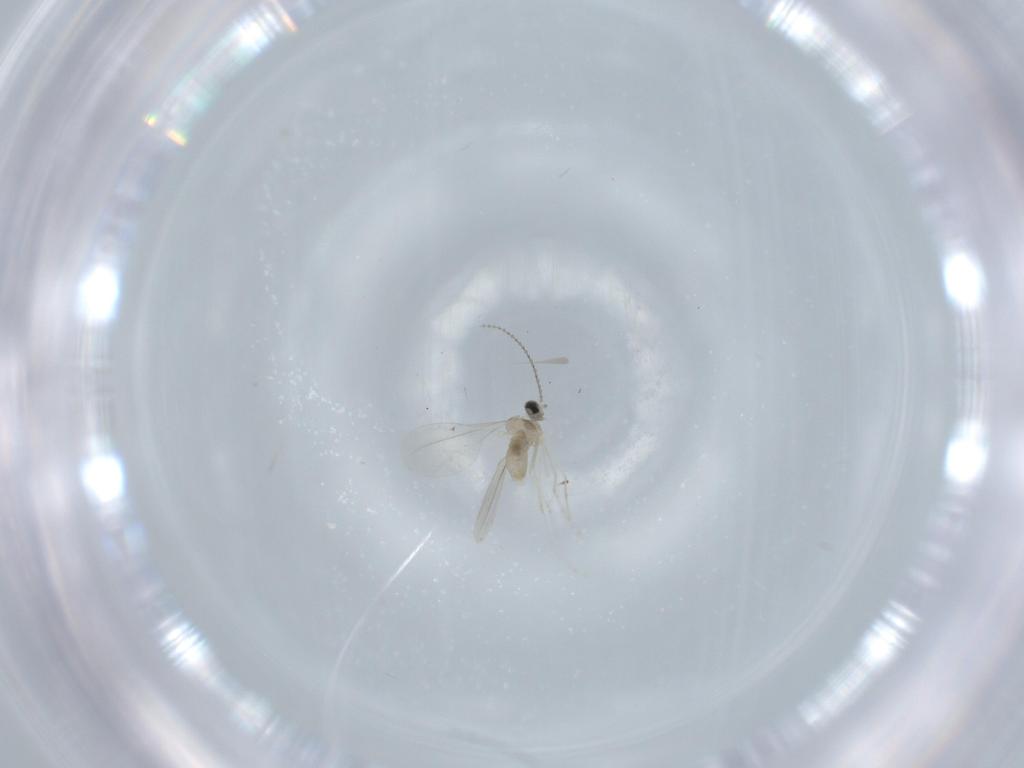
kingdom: Animalia
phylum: Arthropoda
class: Insecta
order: Diptera
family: Cecidomyiidae
